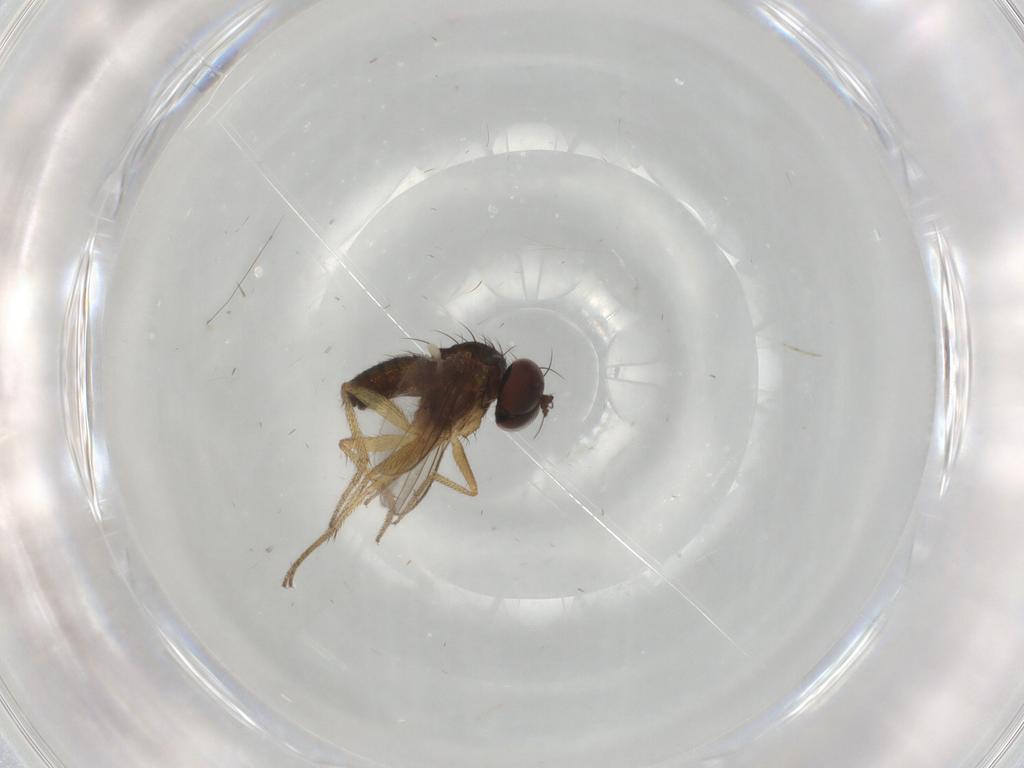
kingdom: Animalia
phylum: Arthropoda
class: Insecta
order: Diptera
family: Dolichopodidae
